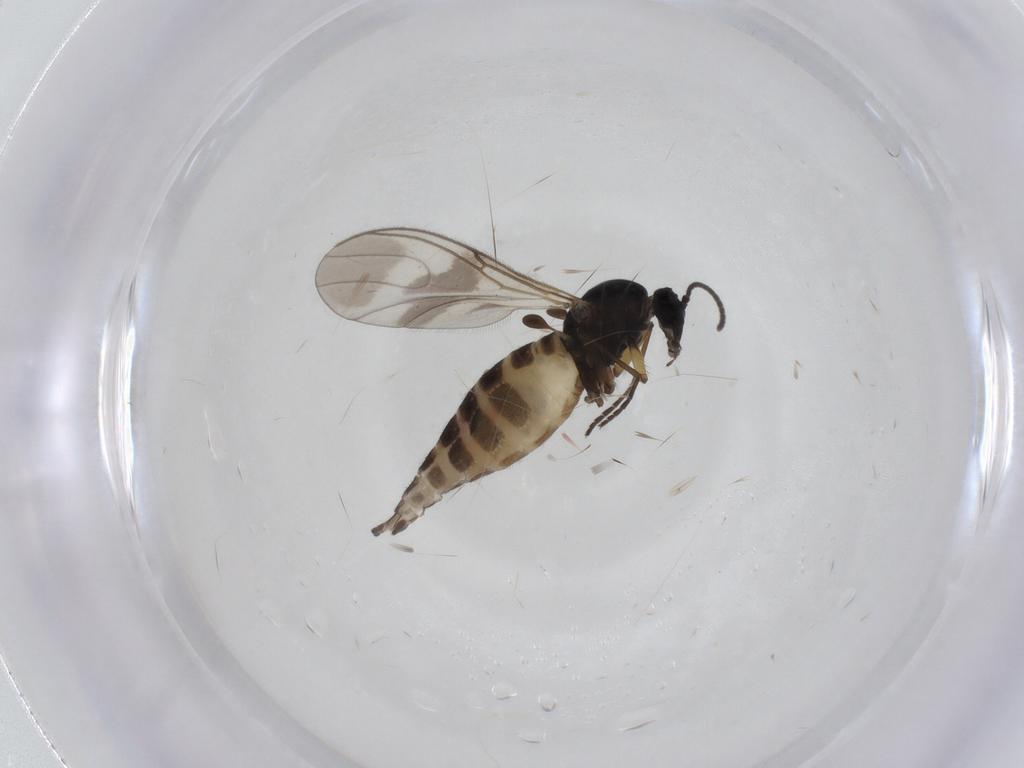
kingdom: Animalia
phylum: Arthropoda
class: Insecta
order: Diptera
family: Sciaridae
